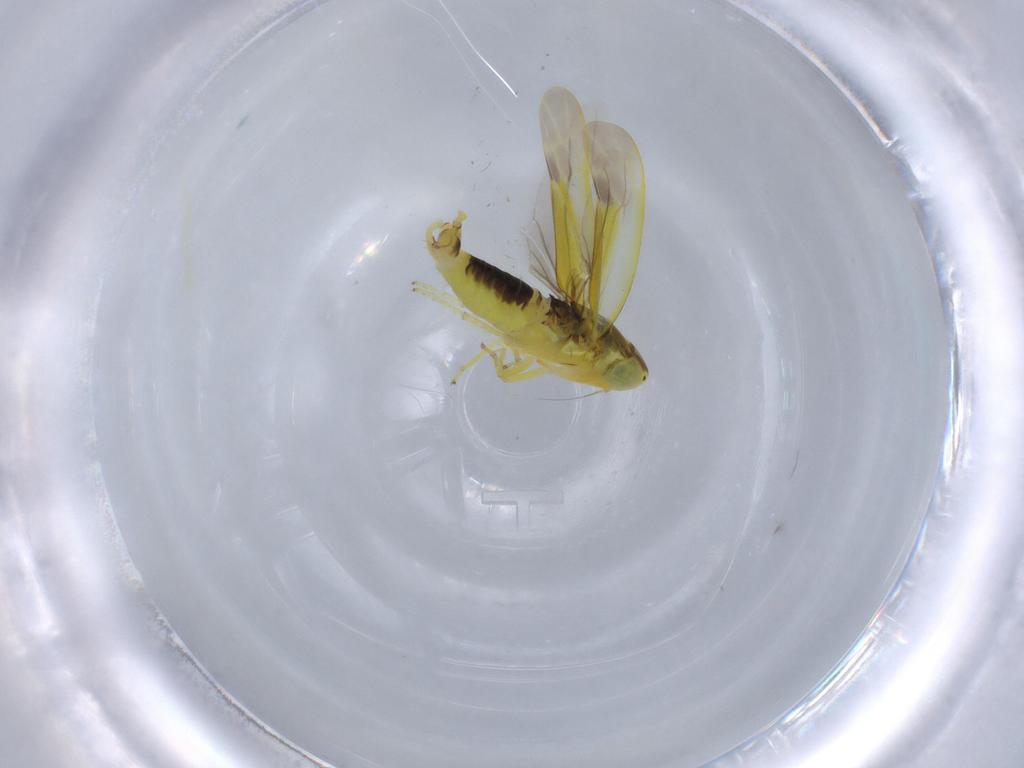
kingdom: Animalia
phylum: Arthropoda
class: Insecta
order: Hemiptera
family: Cicadellidae
